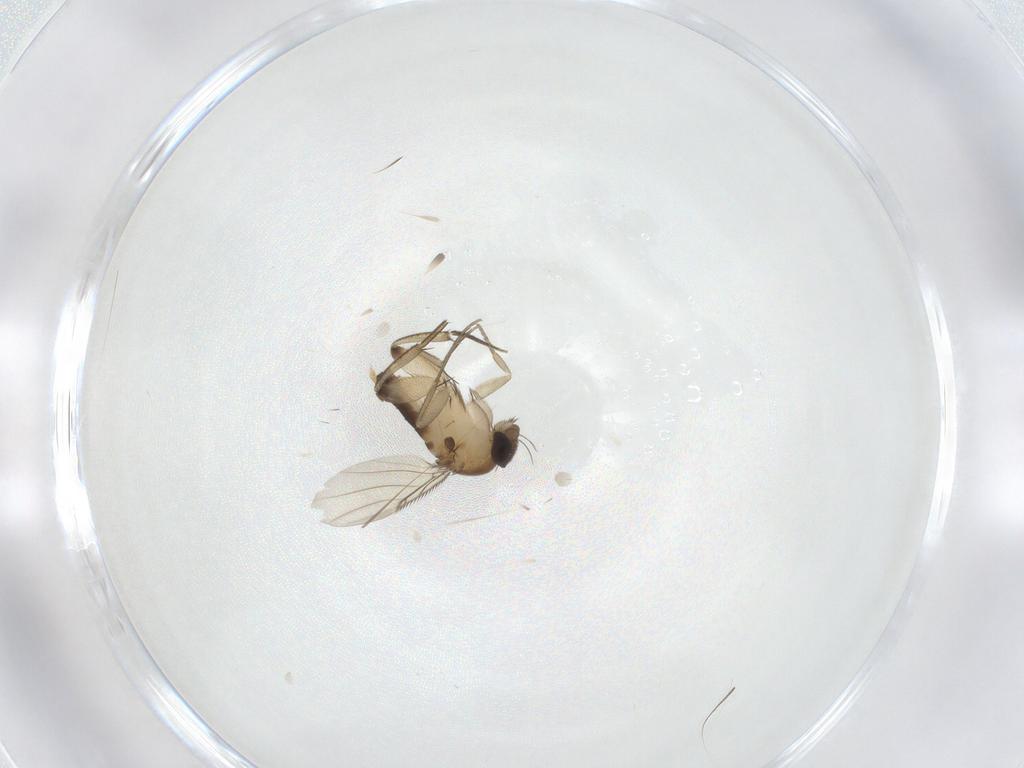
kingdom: Animalia
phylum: Arthropoda
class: Insecta
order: Diptera
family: Phoridae
